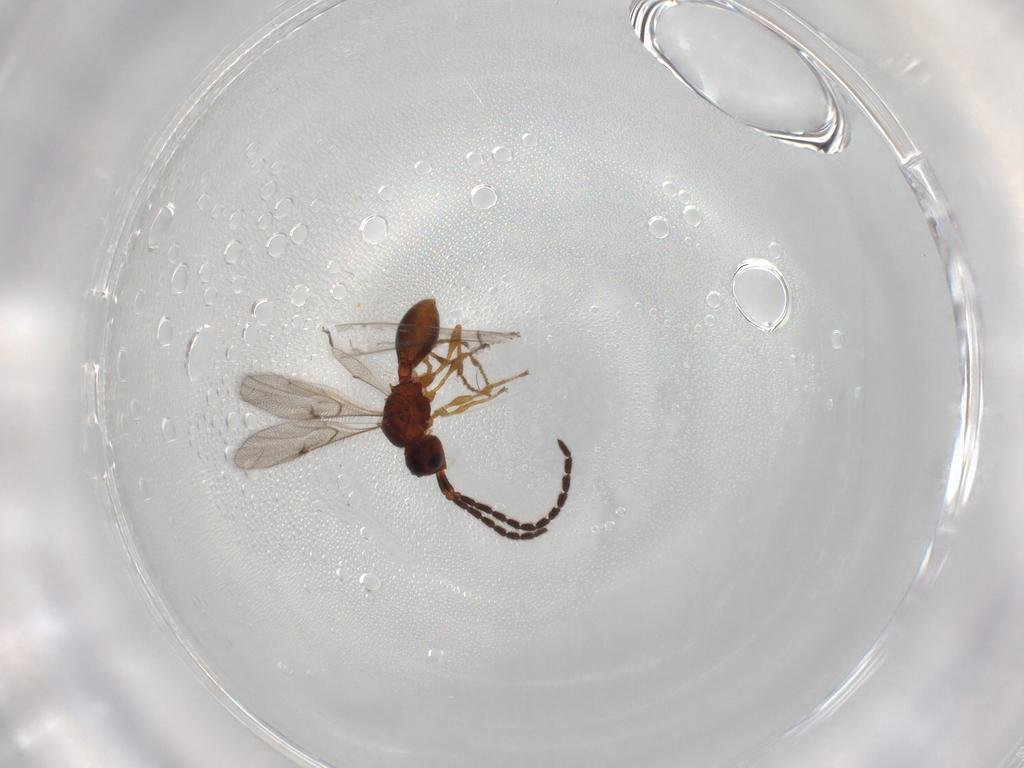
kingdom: Animalia
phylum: Arthropoda
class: Insecta
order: Hymenoptera
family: Diapriidae
